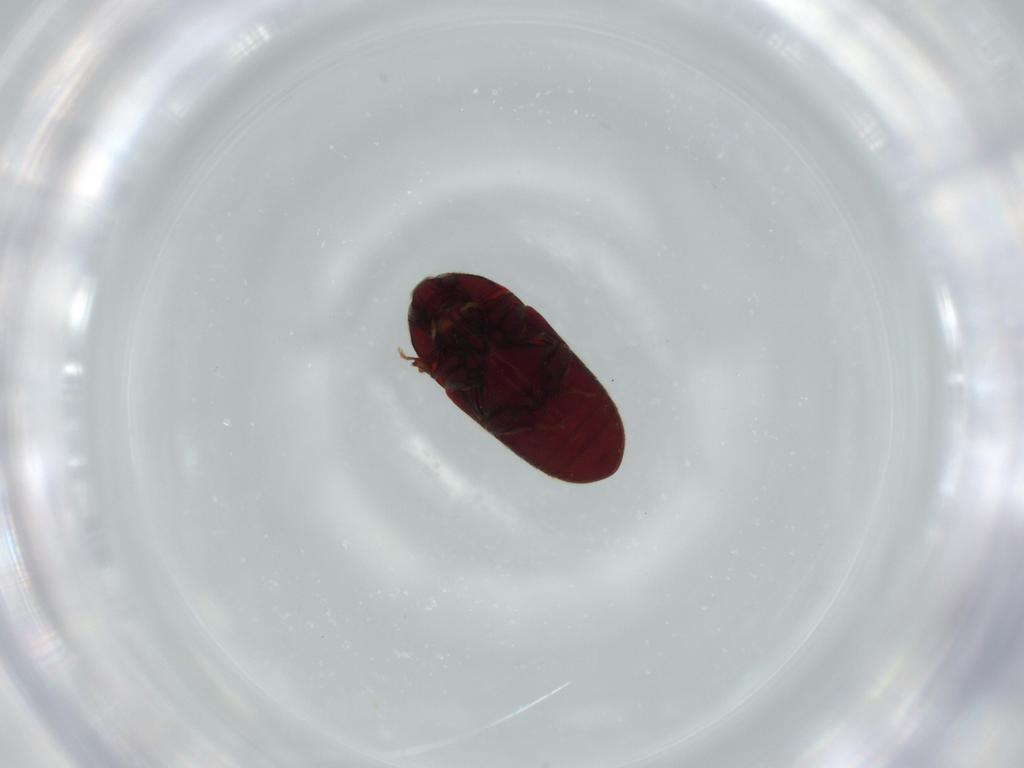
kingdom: Animalia
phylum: Arthropoda
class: Insecta
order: Coleoptera
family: Throscidae
